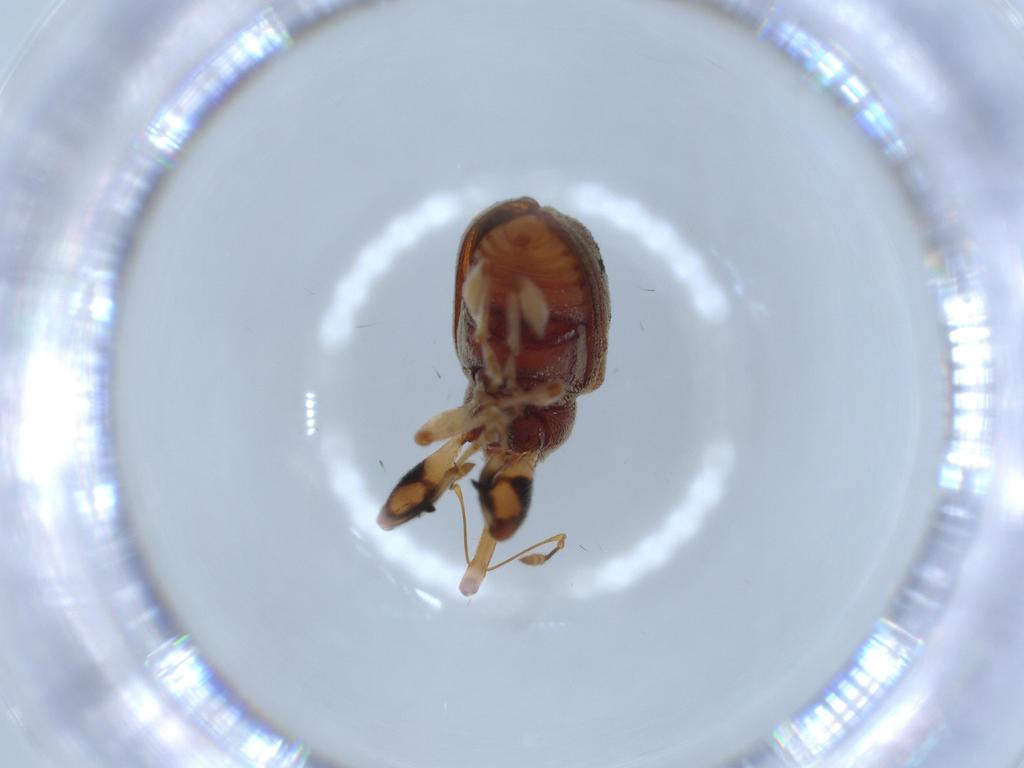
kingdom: Animalia
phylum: Arthropoda
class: Insecta
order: Coleoptera
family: Curculionidae
